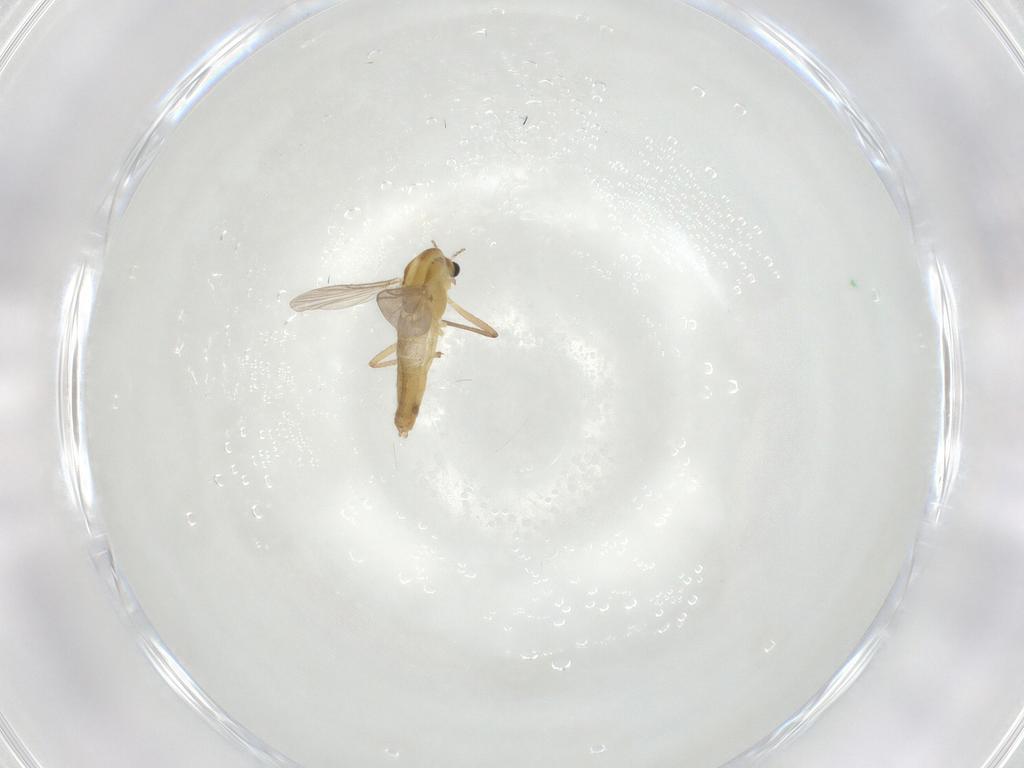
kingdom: Animalia
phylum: Arthropoda
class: Insecta
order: Diptera
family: Chironomidae
